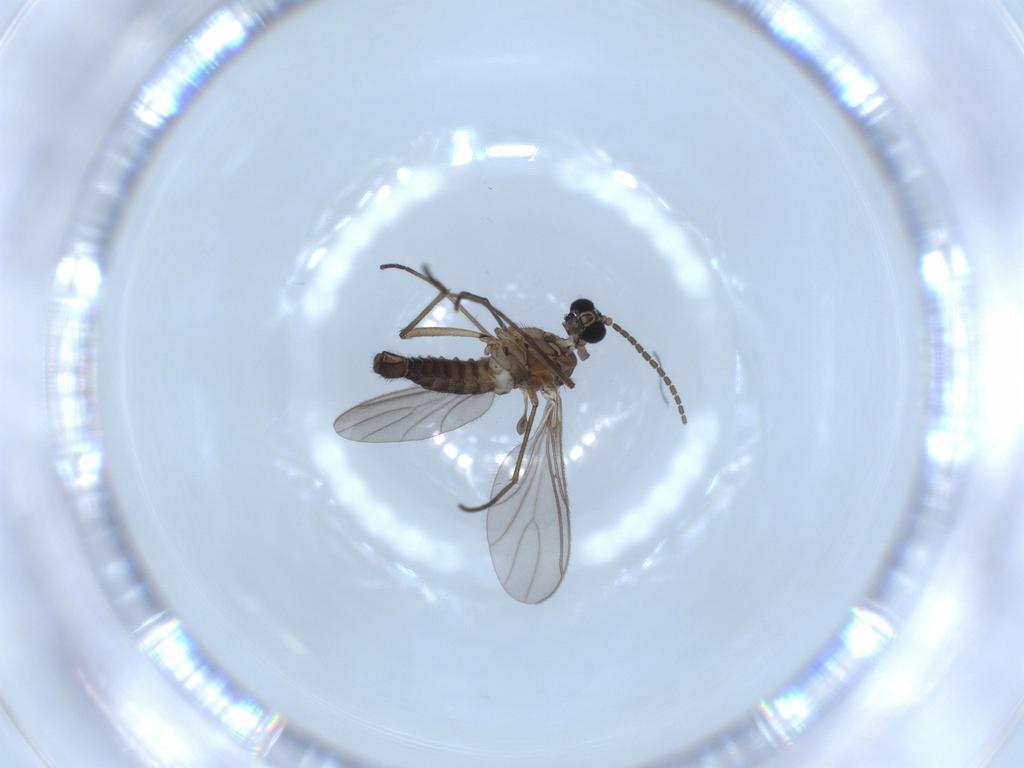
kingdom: Animalia
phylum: Arthropoda
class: Insecta
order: Diptera
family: Sciaridae
